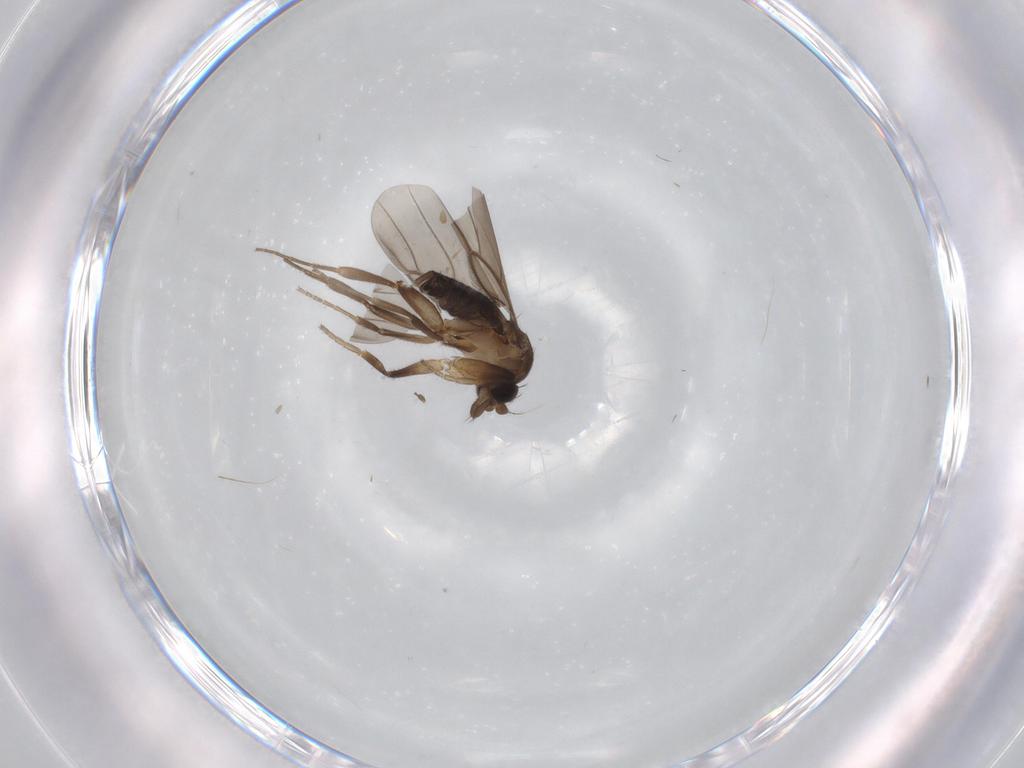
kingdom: Animalia
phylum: Arthropoda
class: Insecta
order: Diptera
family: Phoridae
